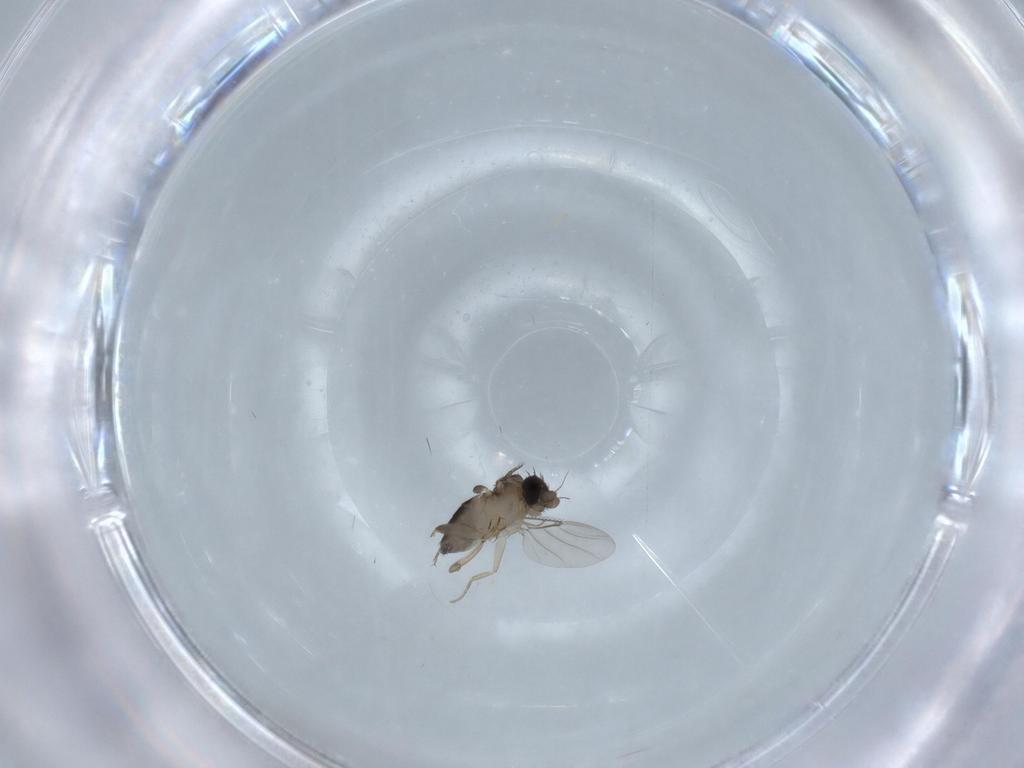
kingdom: Animalia
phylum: Arthropoda
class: Insecta
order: Diptera
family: Phoridae
